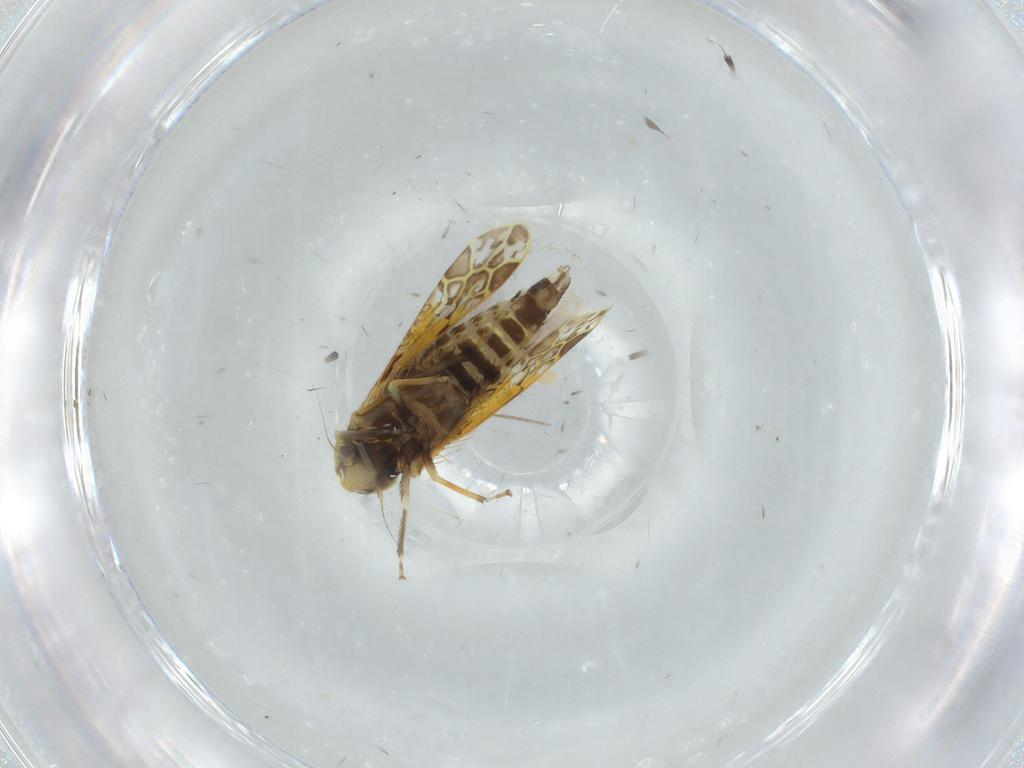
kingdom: Animalia
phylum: Arthropoda
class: Insecta
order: Hemiptera
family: Cicadellidae
